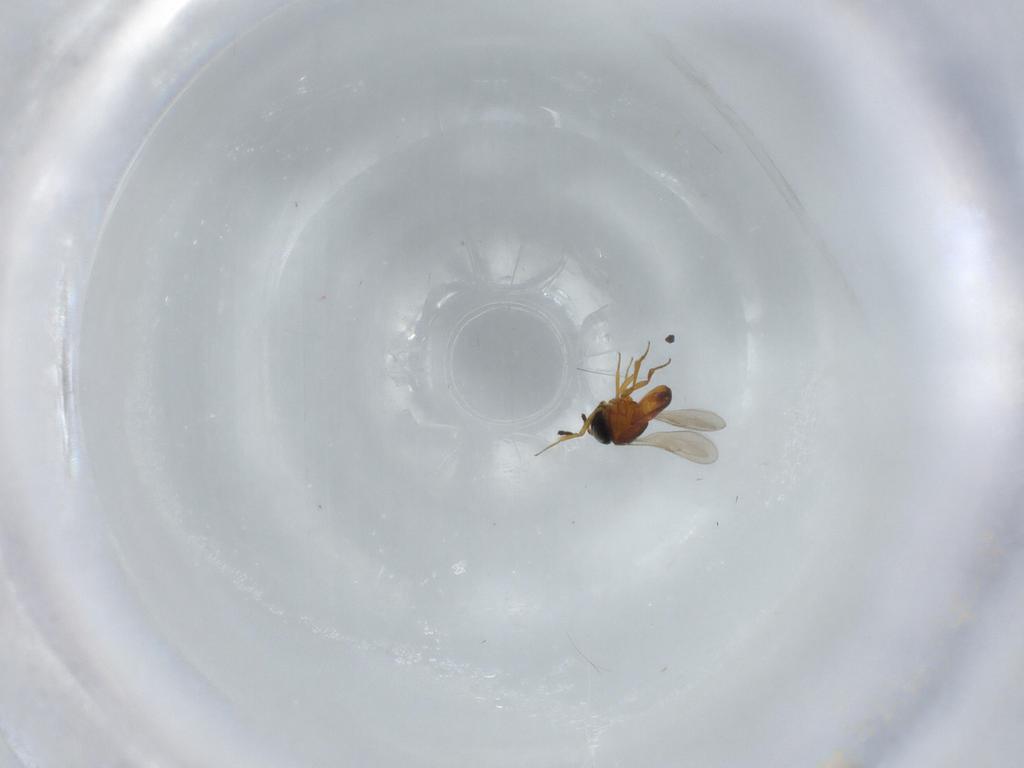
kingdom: Animalia
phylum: Arthropoda
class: Insecta
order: Hymenoptera
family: Scelionidae
